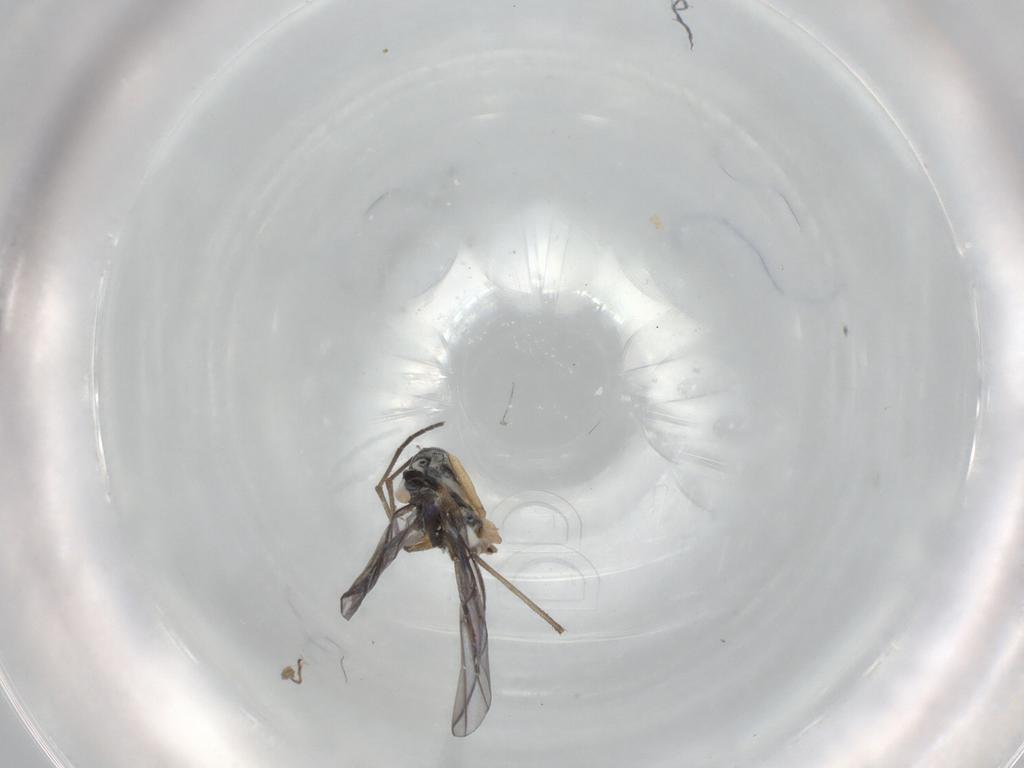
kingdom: Animalia
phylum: Arthropoda
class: Insecta
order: Diptera
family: Sciaridae
